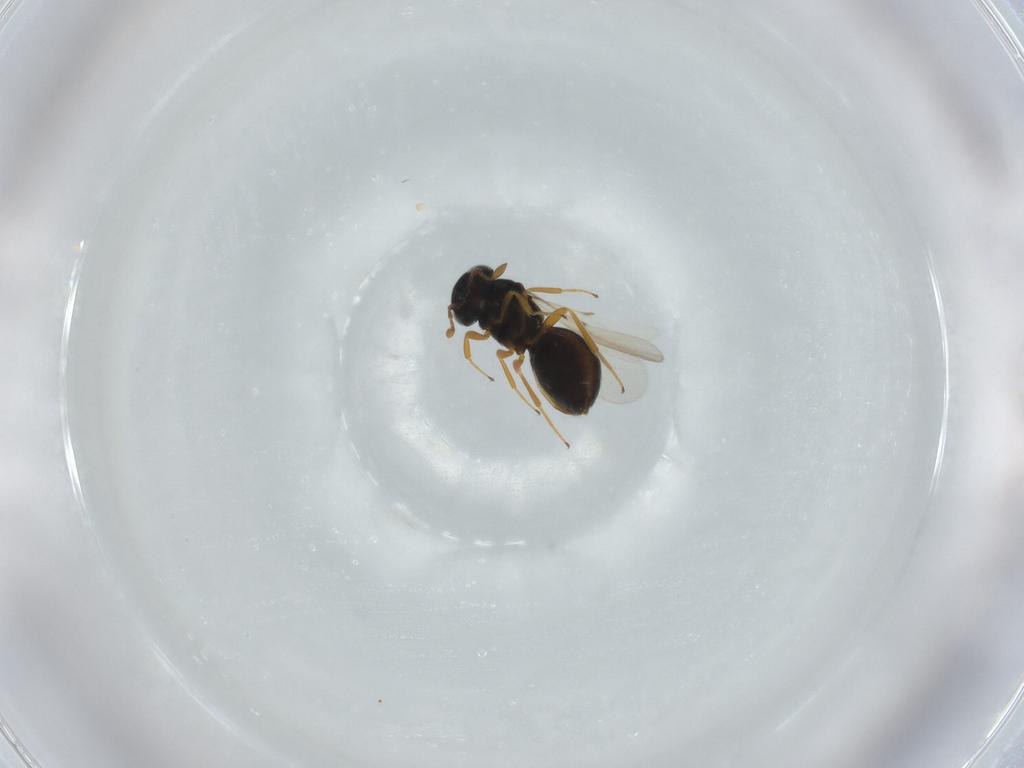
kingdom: Animalia
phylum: Arthropoda
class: Insecta
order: Hymenoptera
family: Scelionidae
